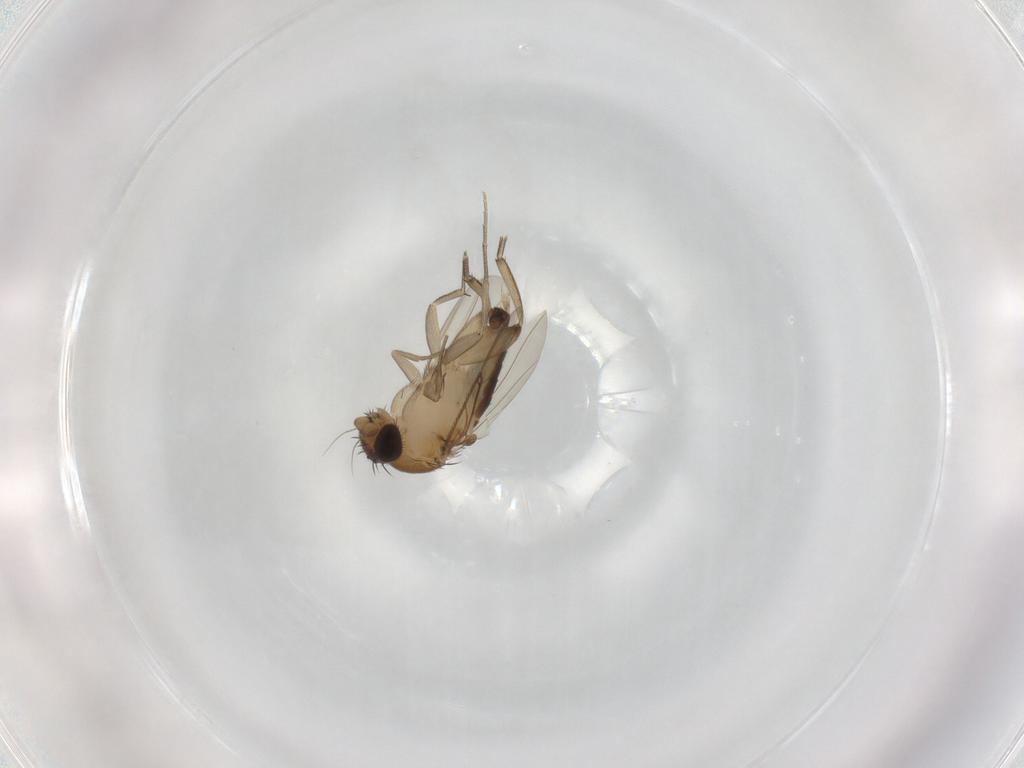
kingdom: Animalia
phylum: Arthropoda
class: Insecta
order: Diptera
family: Phoridae
